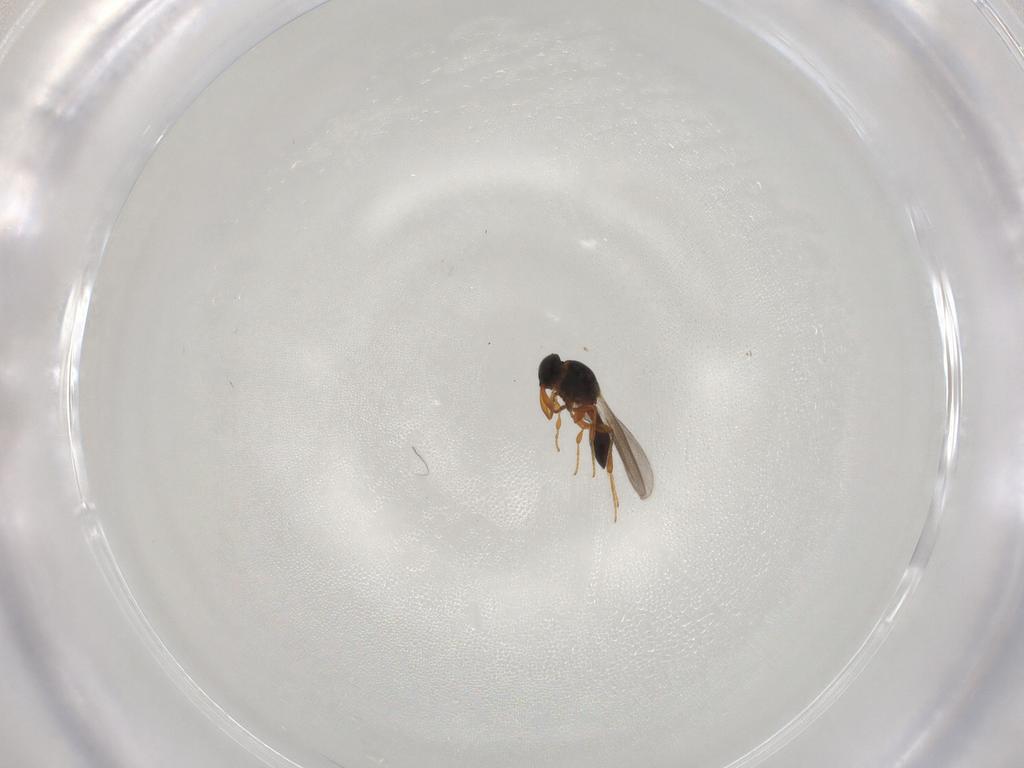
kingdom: Animalia
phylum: Arthropoda
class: Insecta
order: Hymenoptera
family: Platygastridae
